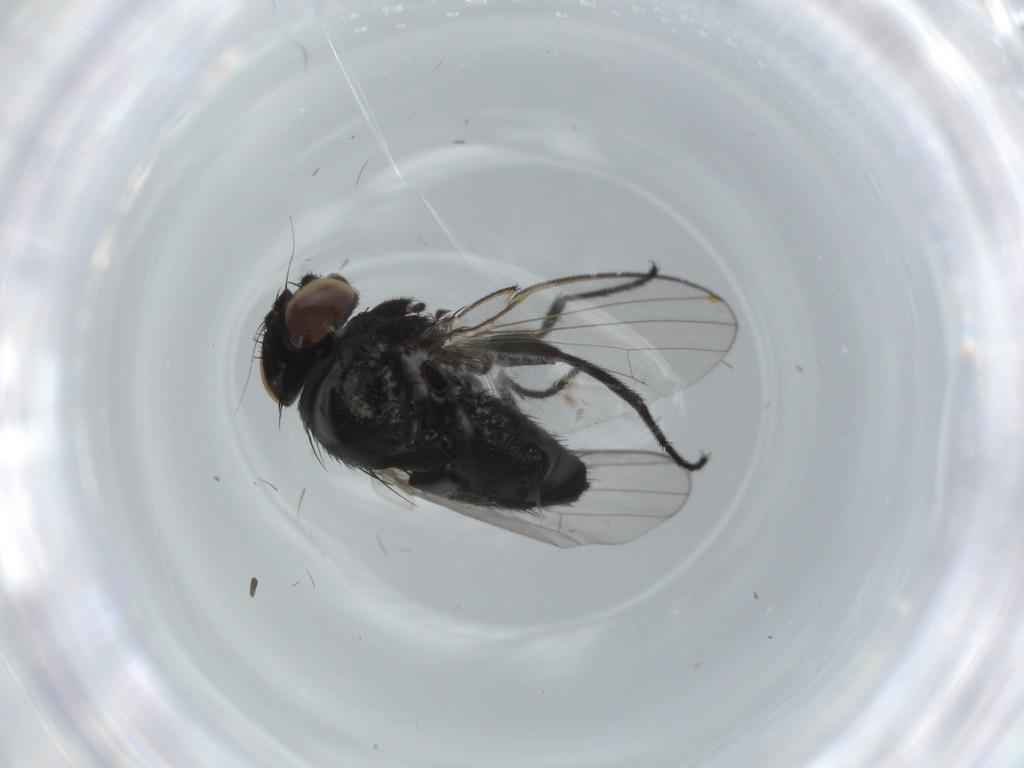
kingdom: Animalia
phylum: Arthropoda
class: Insecta
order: Diptera
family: Milichiidae
